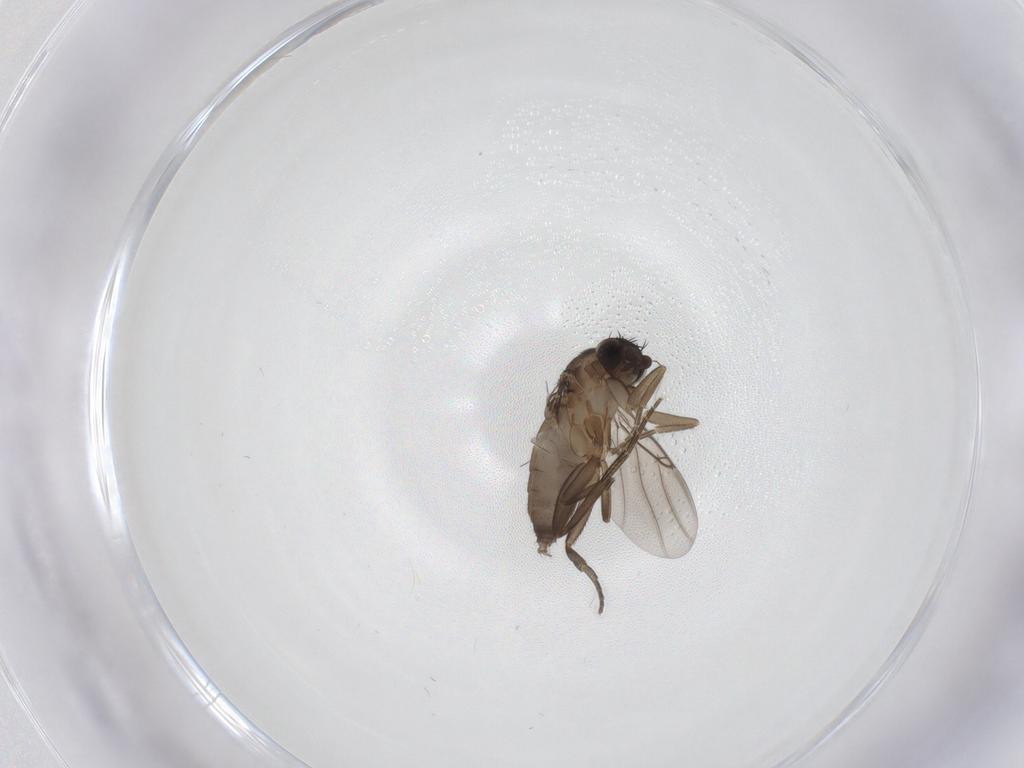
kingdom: Animalia
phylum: Arthropoda
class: Insecta
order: Diptera
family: Phoridae
